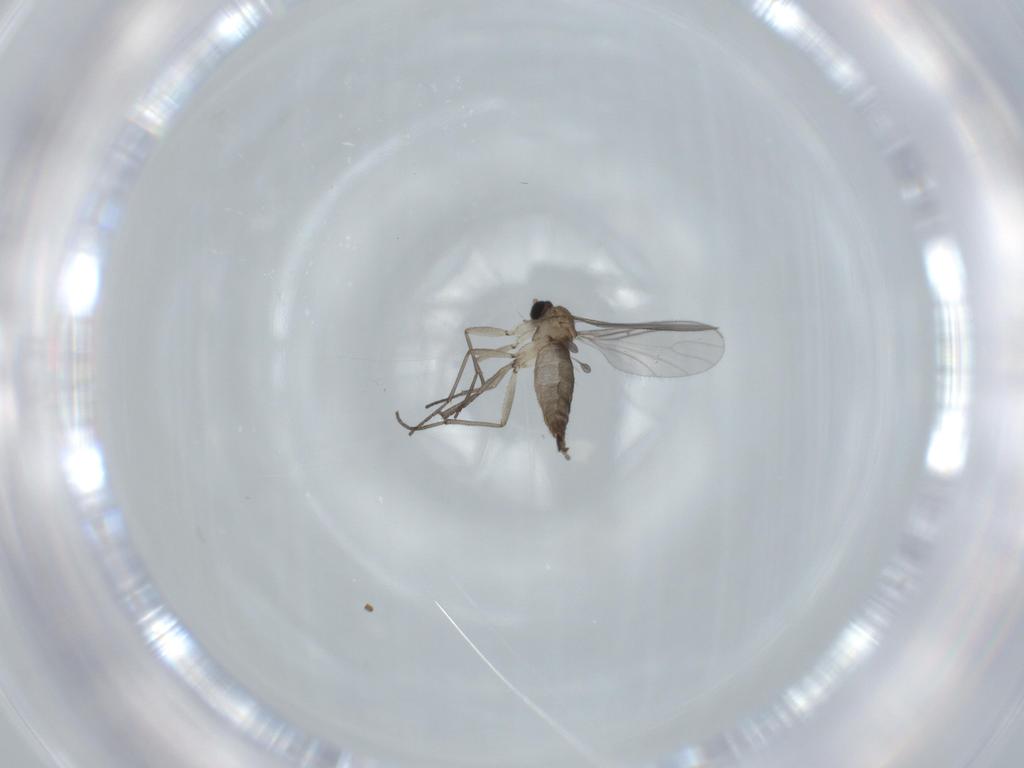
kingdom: Animalia
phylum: Arthropoda
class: Insecta
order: Diptera
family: Sciaridae
